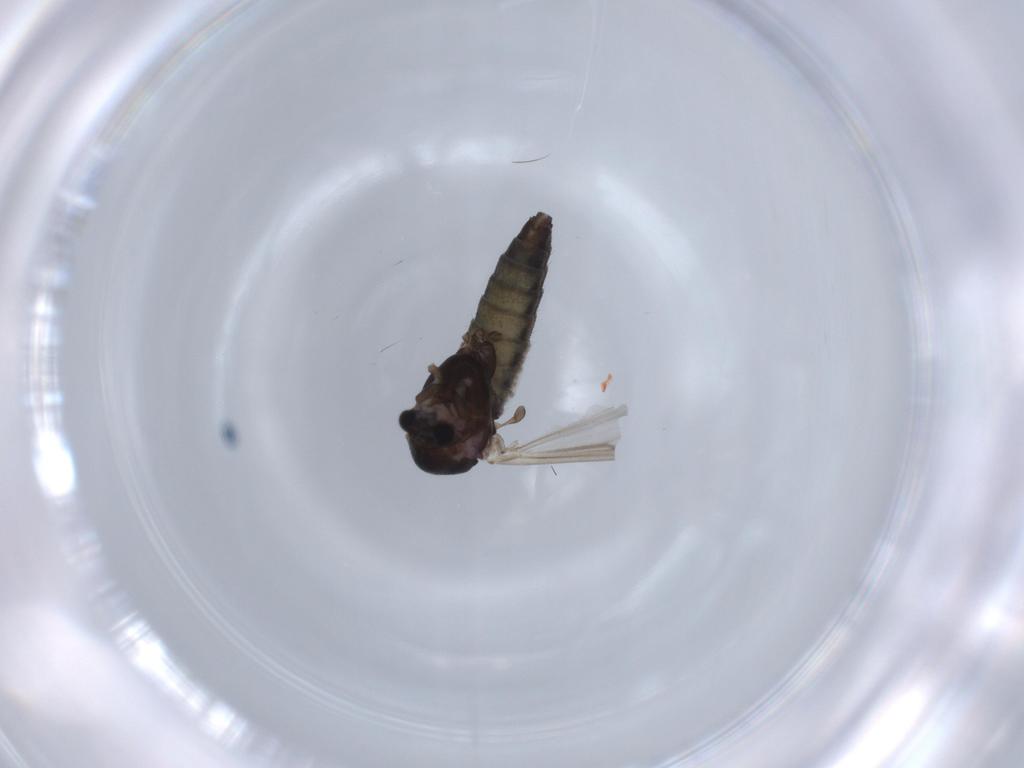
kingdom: Animalia
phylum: Arthropoda
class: Insecta
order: Diptera
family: Chironomidae
